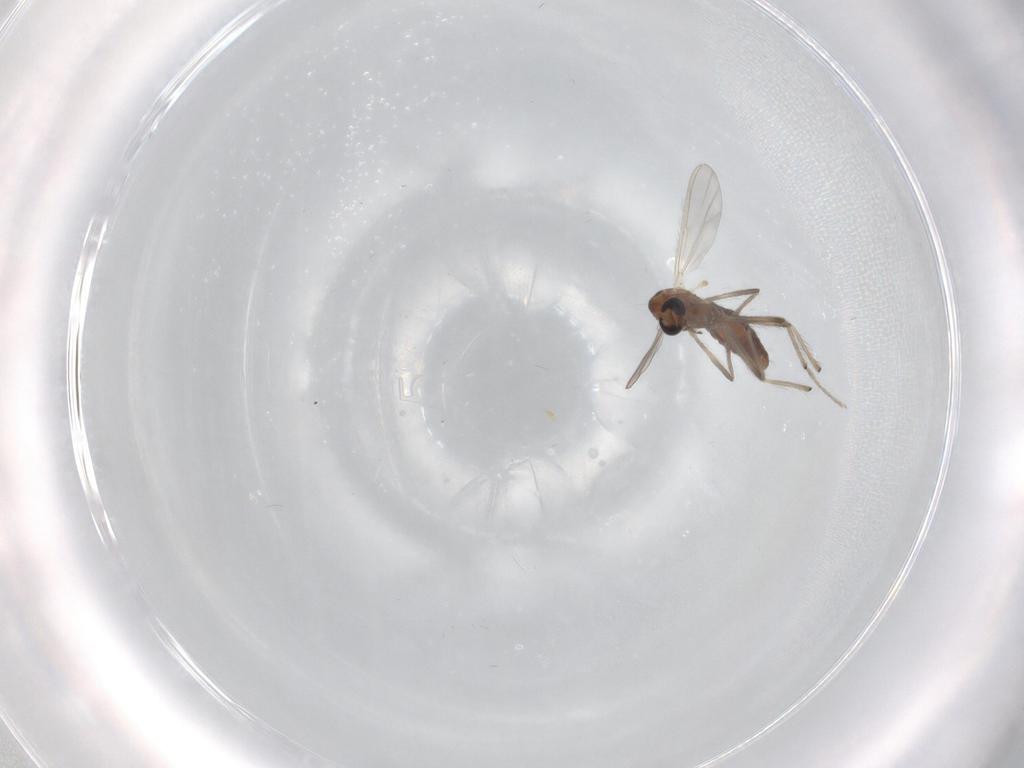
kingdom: Animalia
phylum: Arthropoda
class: Insecta
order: Diptera
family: Chironomidae
